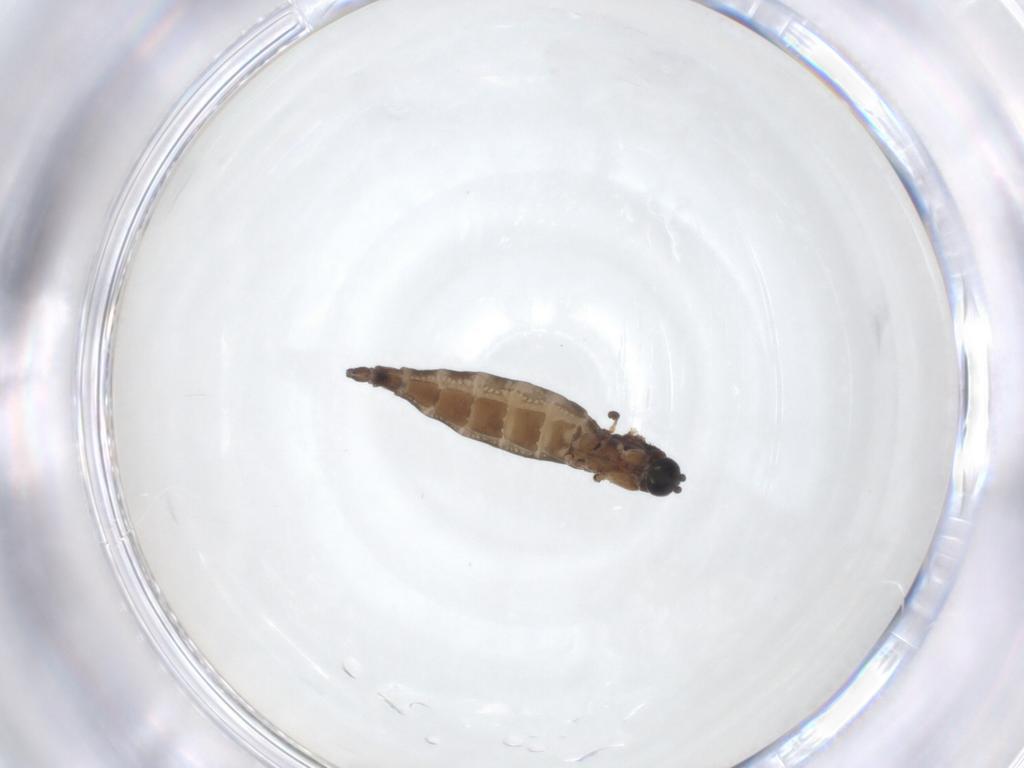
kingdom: Animalia
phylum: Arthropoda
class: Insecta
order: Diptera
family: Sciaridae
